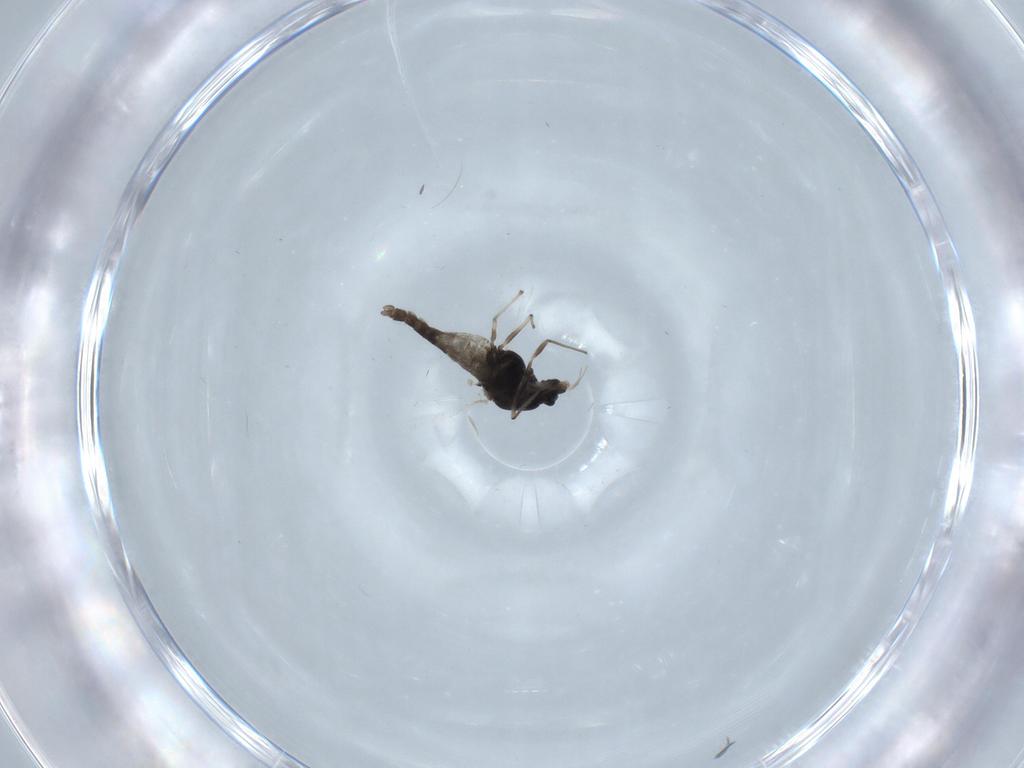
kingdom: Animalia
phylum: Arthropoda
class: Insecta
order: Diptera
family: Chironomidae
